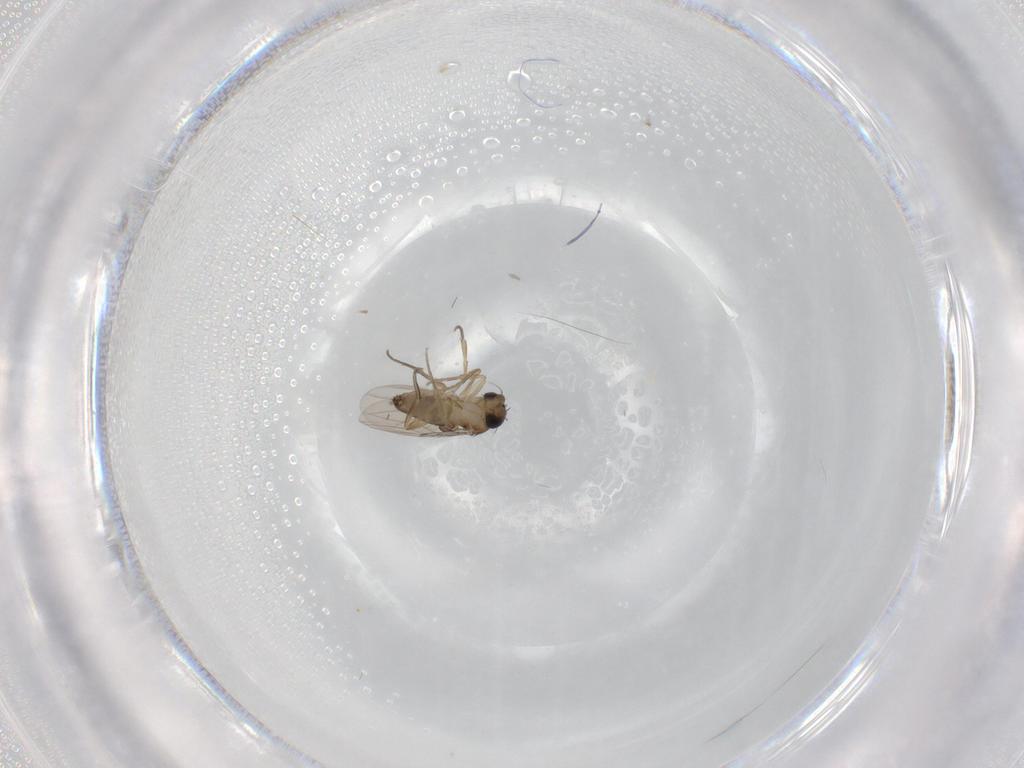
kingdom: Animalia
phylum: Arthropoda
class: Insecta
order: Diptera
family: Phoridae
